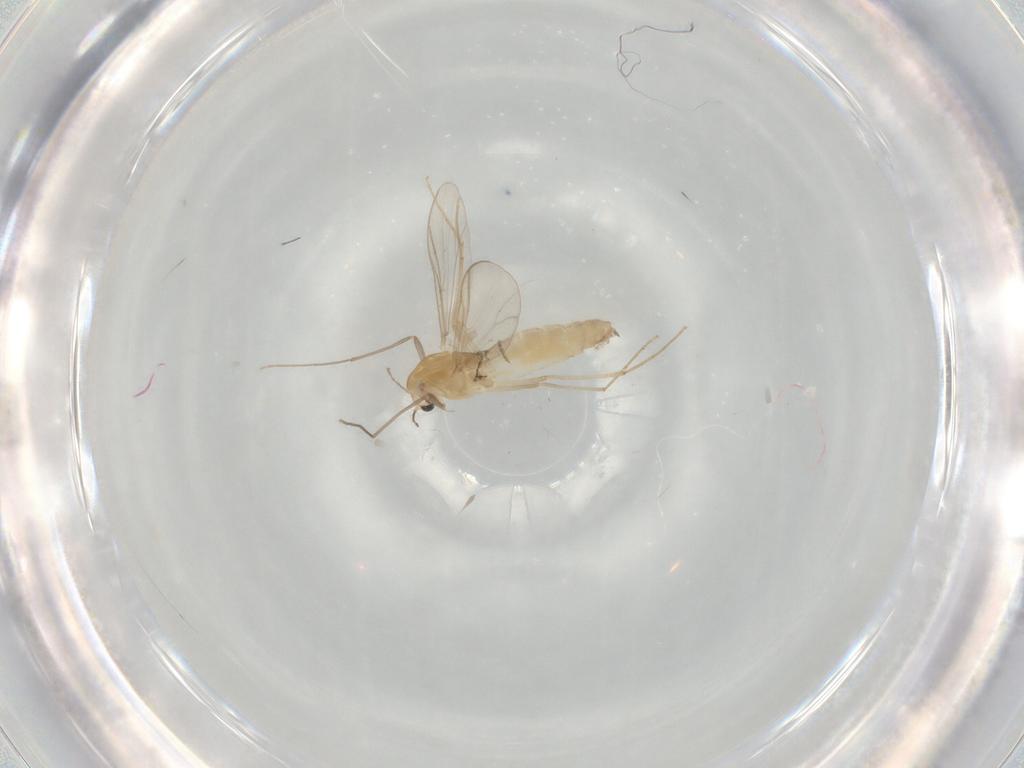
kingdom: Animalia
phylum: Arthropoda
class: Insecta
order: Diptera
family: Chironomidae
